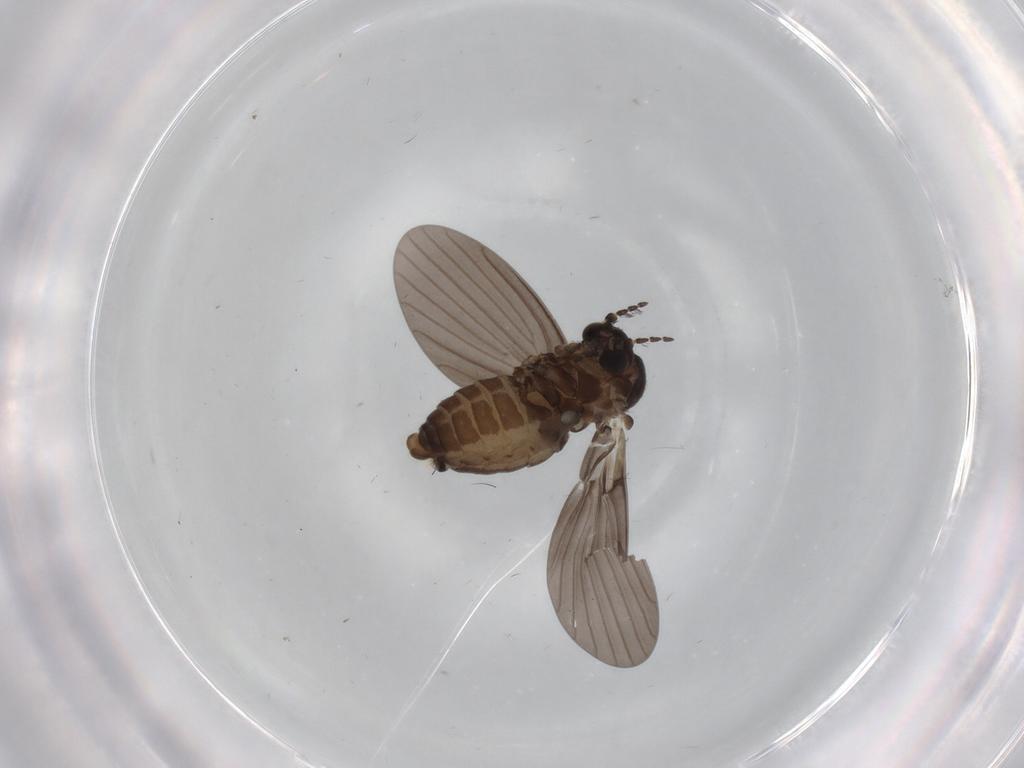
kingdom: Animalia
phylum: Arthropoda
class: Insecta
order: Diptera
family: Psychodidae
